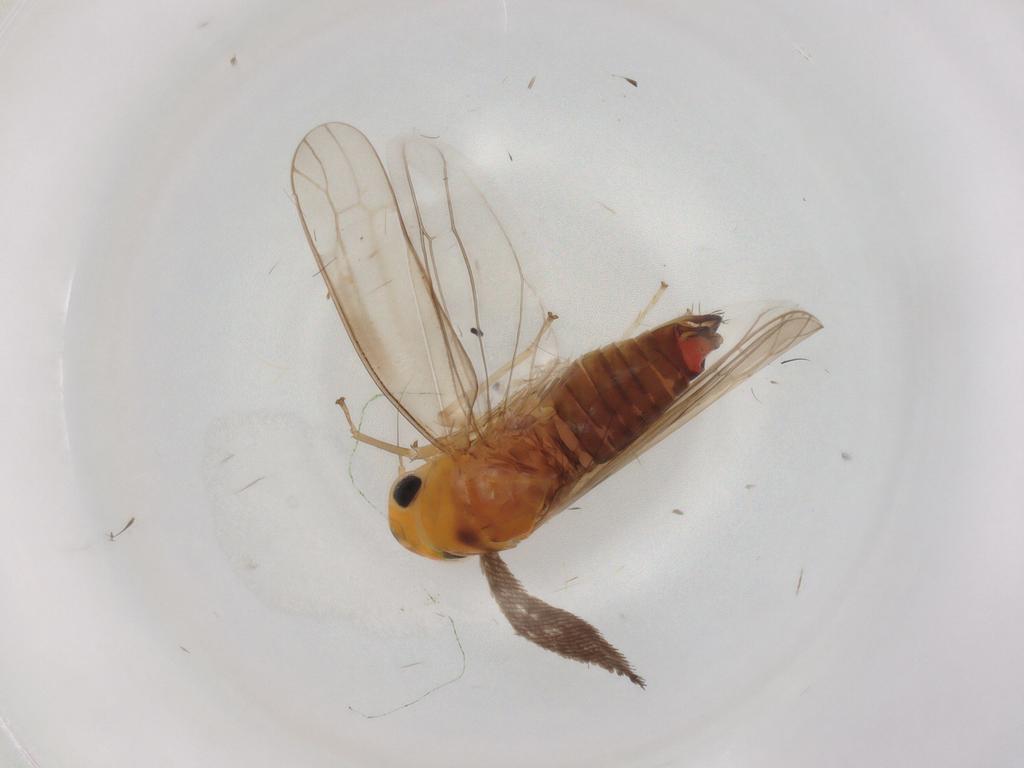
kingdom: Animalia
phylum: Arthropoda
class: Insecta
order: Hemiptera
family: Cicadellidae
